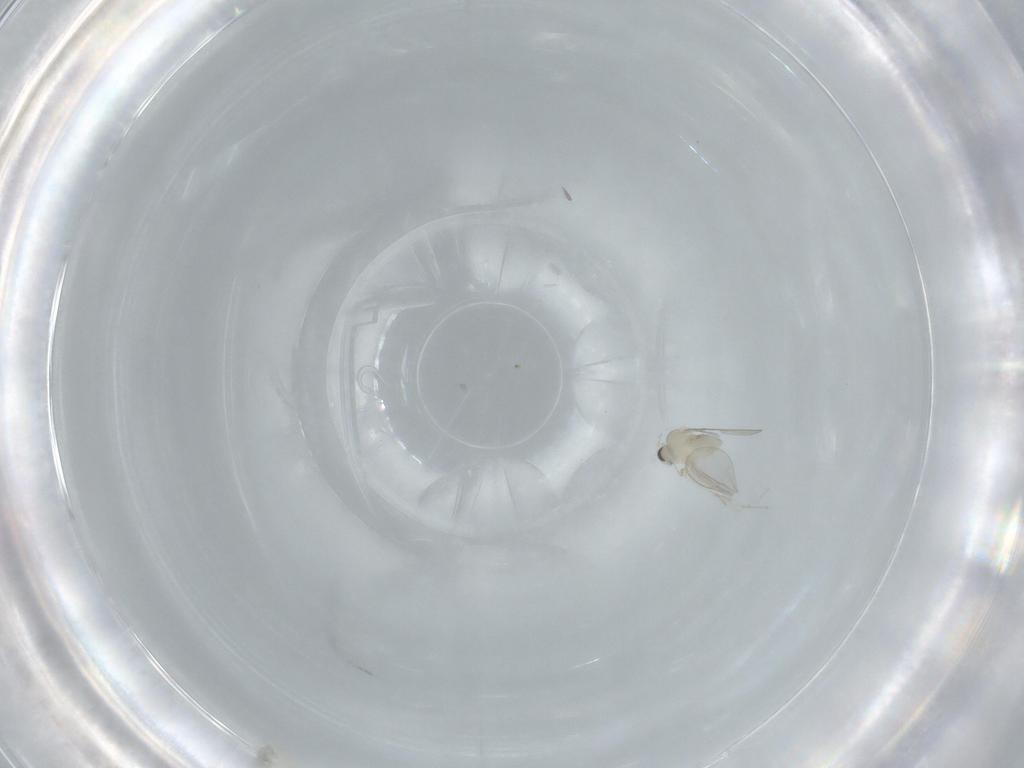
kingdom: Animalia
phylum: Arthropoda
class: Insecta
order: Diptera
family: Cecidomyiidae
